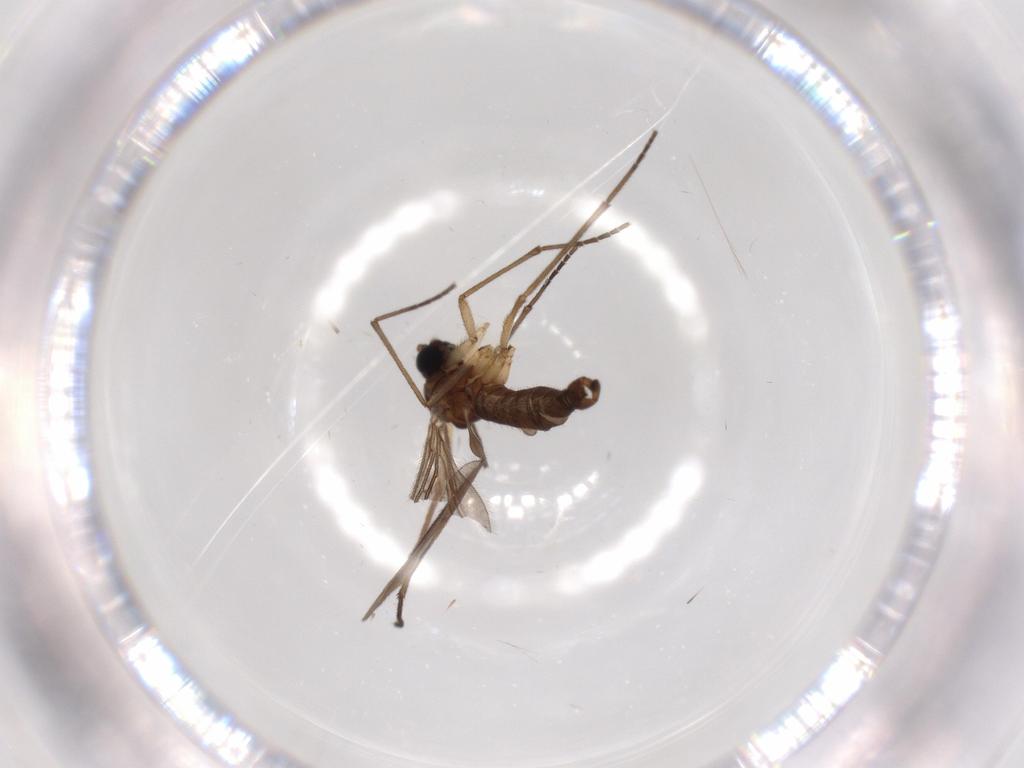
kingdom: Animalia
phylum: Arthropoda
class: Insecta
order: Diptera
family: Sciaridae
